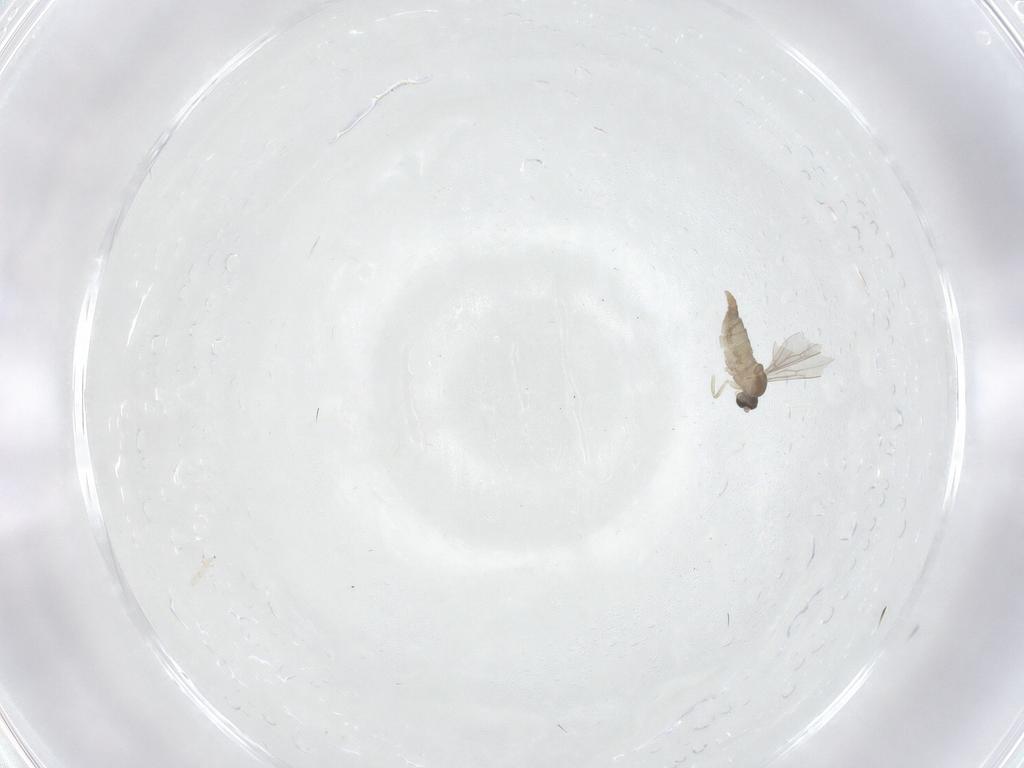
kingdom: Animalia
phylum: Arthropoda
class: Insecta
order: Diptera
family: Cecidomyiidae
